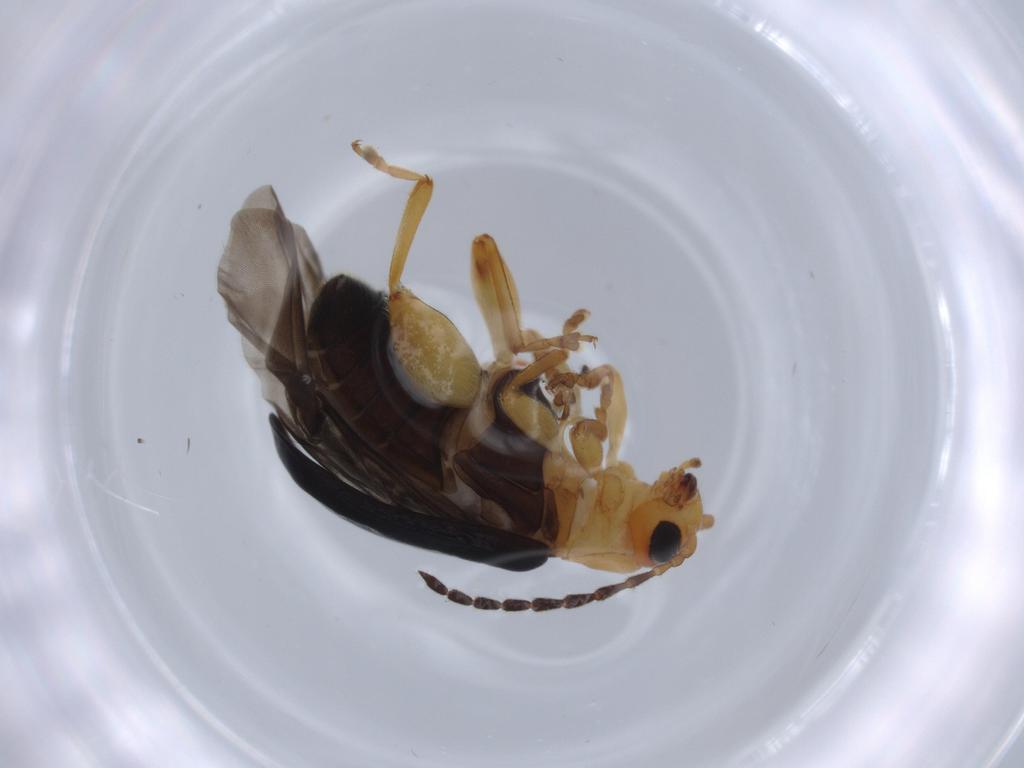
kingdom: Animalia
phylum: Arthropoda
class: Insecta
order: Coleoptera
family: Chrysomelidae
